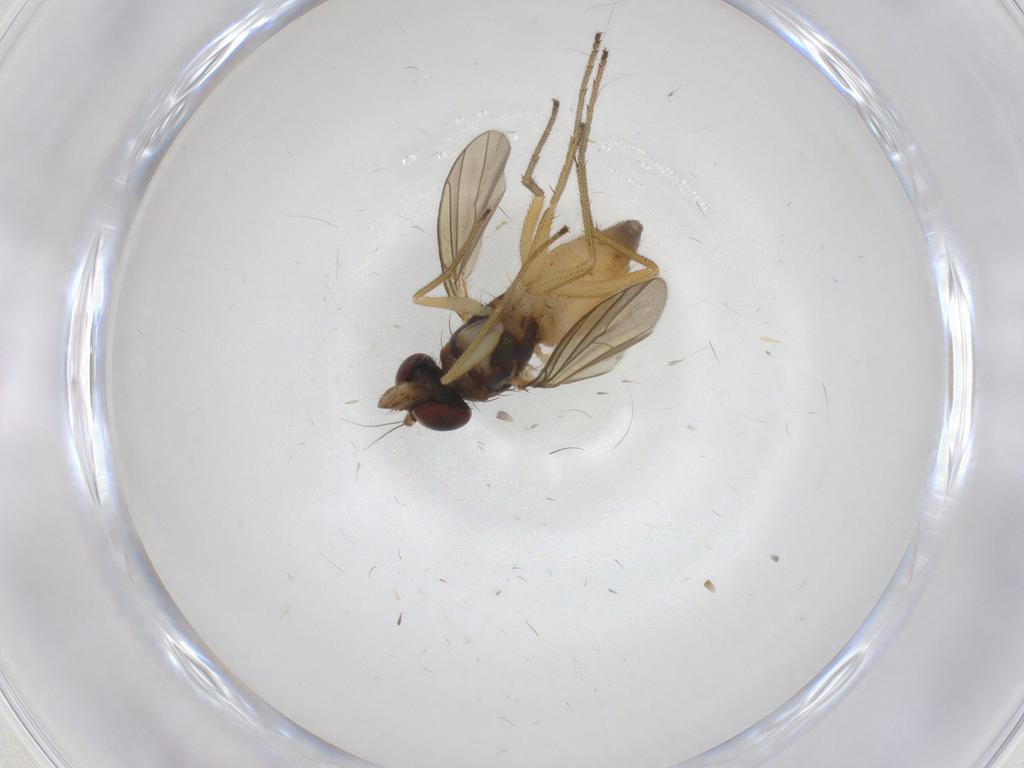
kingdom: Animalia
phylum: Arthropoda
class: Insecta
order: Diptera
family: Dolichopodidae
